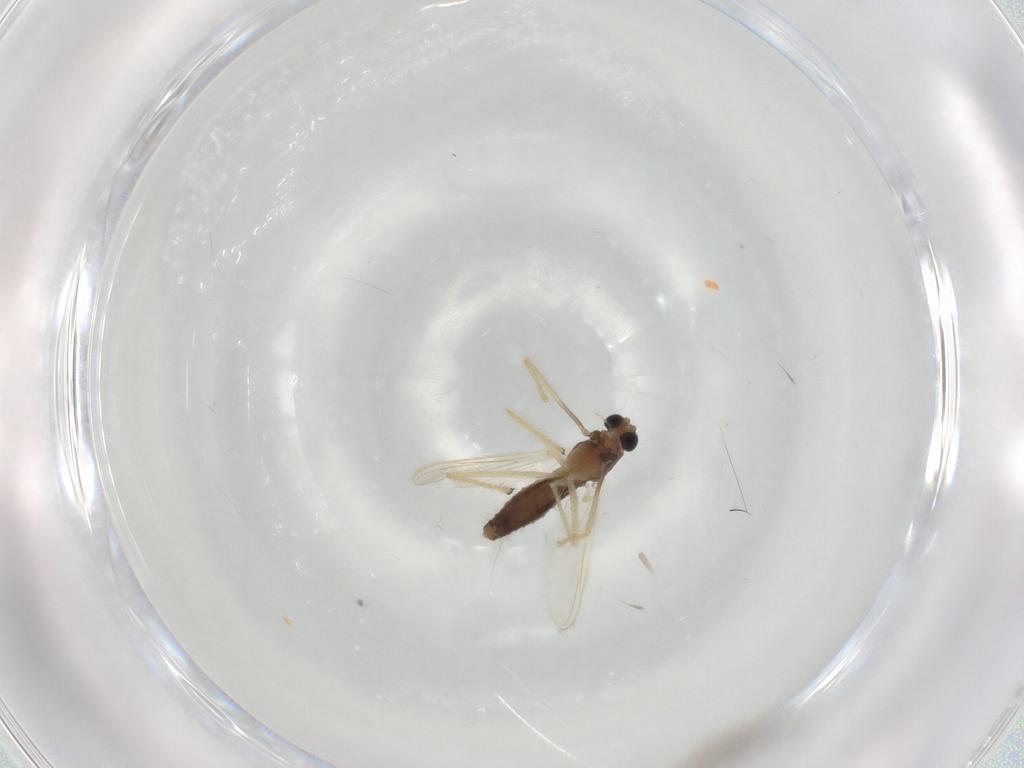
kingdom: Animalia
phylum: Arthropoda
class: Insecta
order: Diptera
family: Chironomidae
